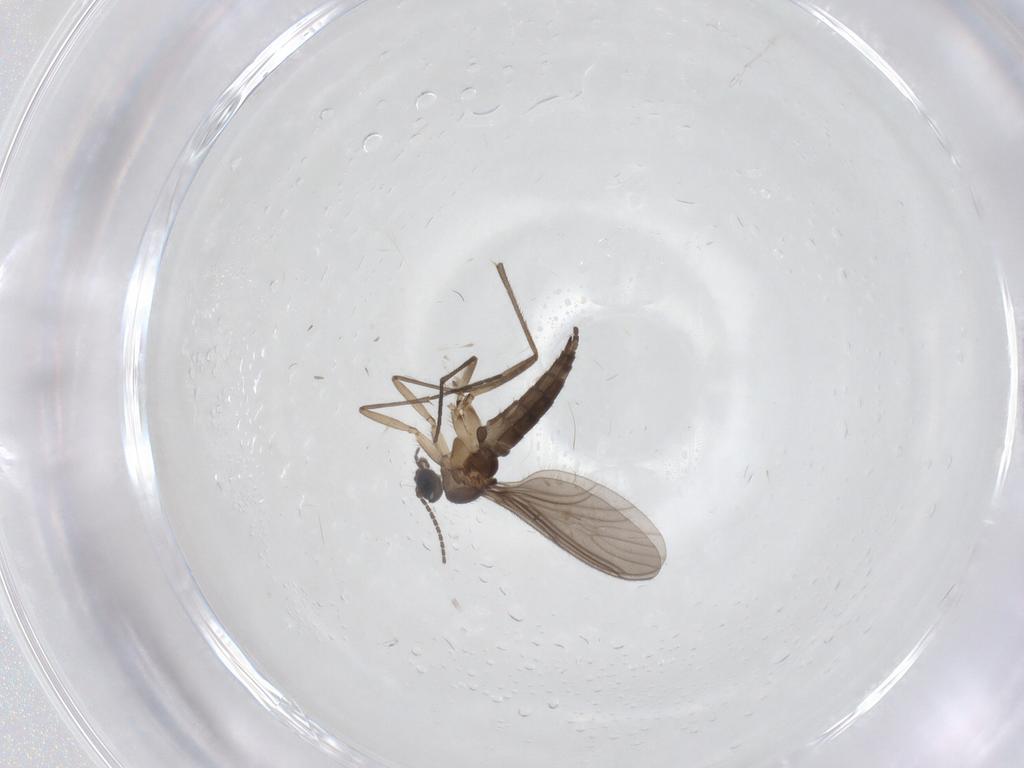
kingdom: Animalia
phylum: Arthropoda
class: Insecta
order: Diptera
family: Sciaridae
